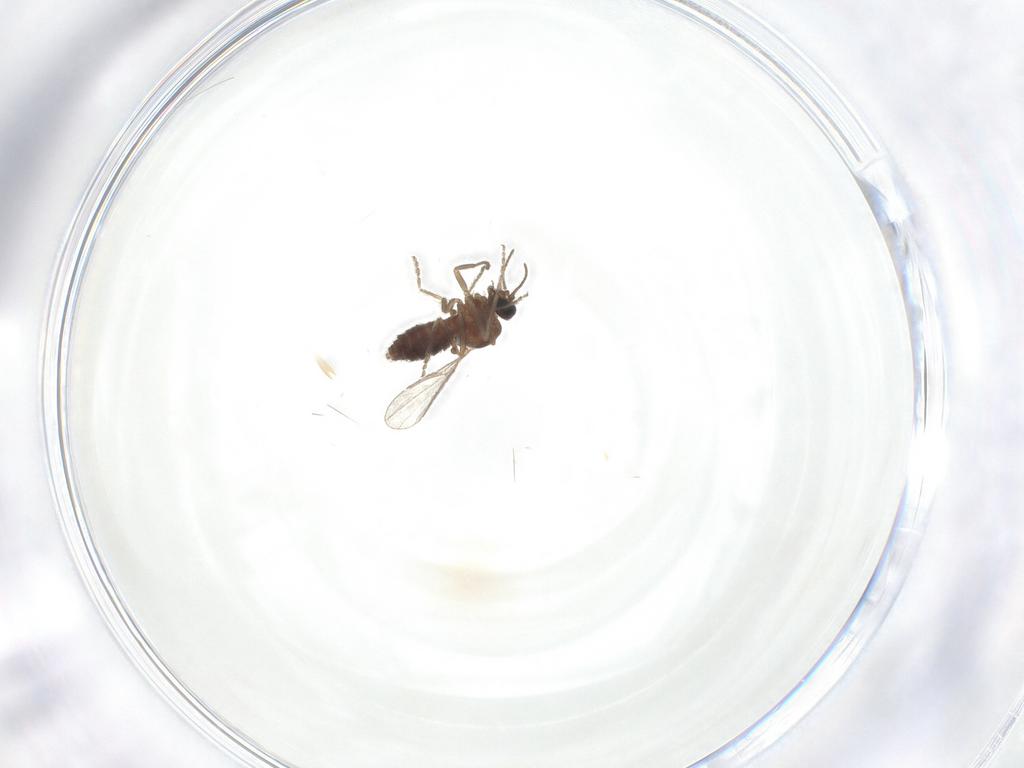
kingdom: Animalia
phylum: Arthropoda
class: Insecta
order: Diptera
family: Ceratopogonidae
